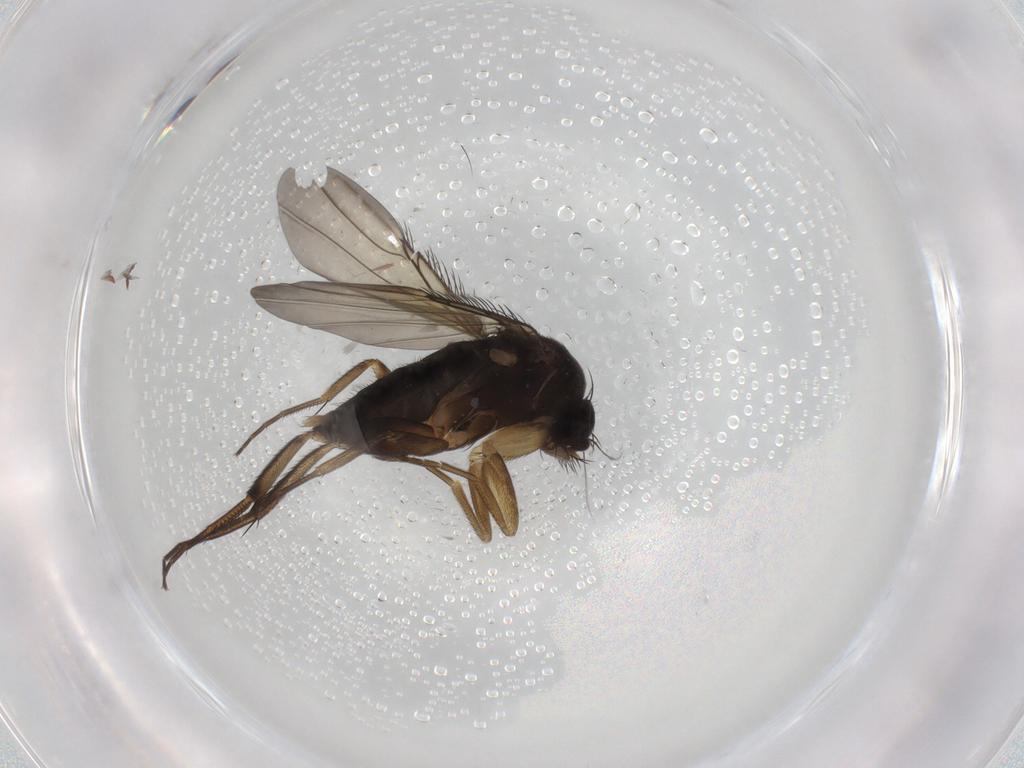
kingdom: Animalia
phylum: Arthropoda
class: Insecta
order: Diptera
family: Phoridae
